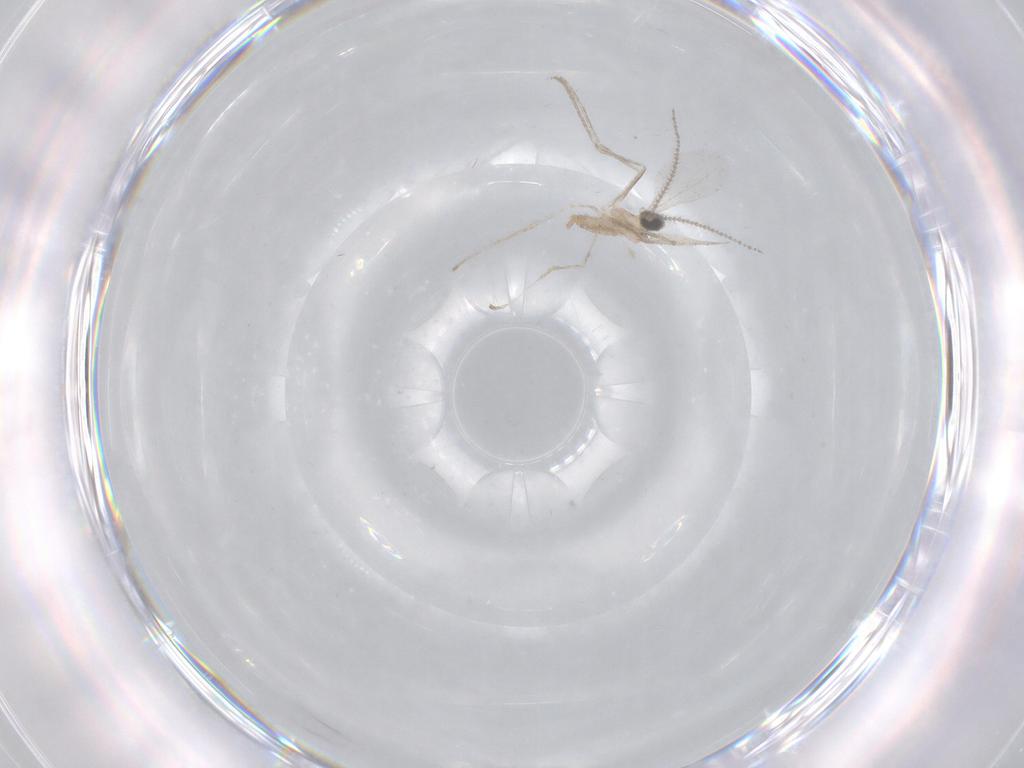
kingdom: Animalia
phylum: Arthropoda
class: Insecta
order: Diptera
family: Cecidomyiidae
